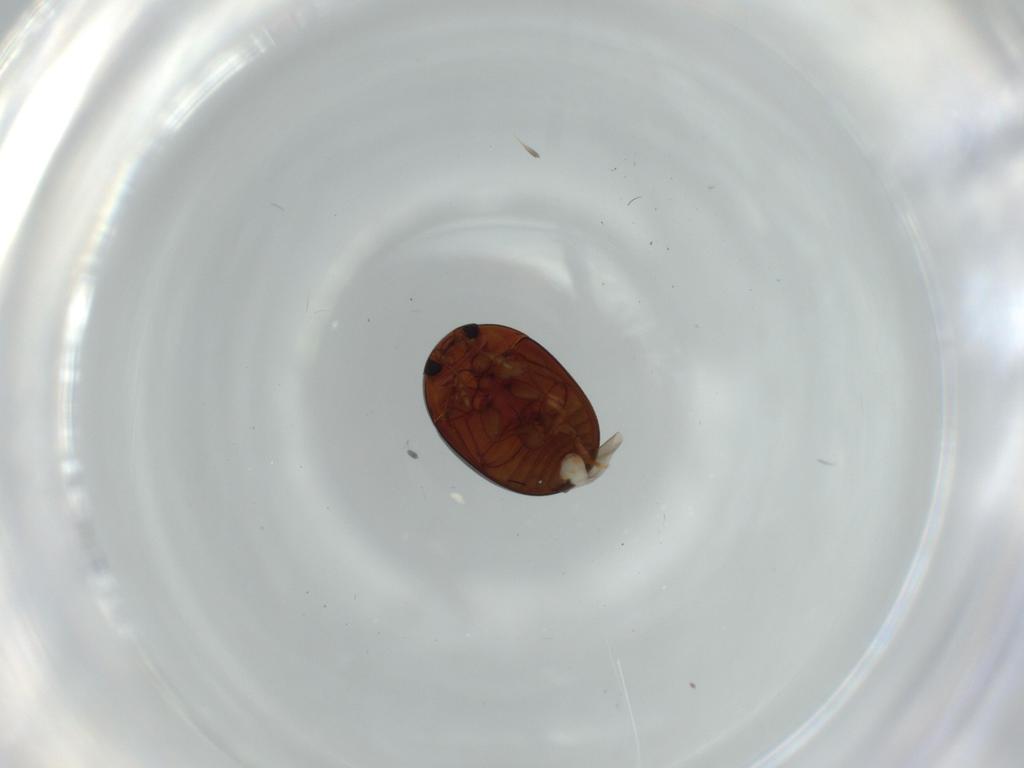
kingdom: Animalia
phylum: Arthropoda
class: Insecta
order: Coleoptera
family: Phalacridae
